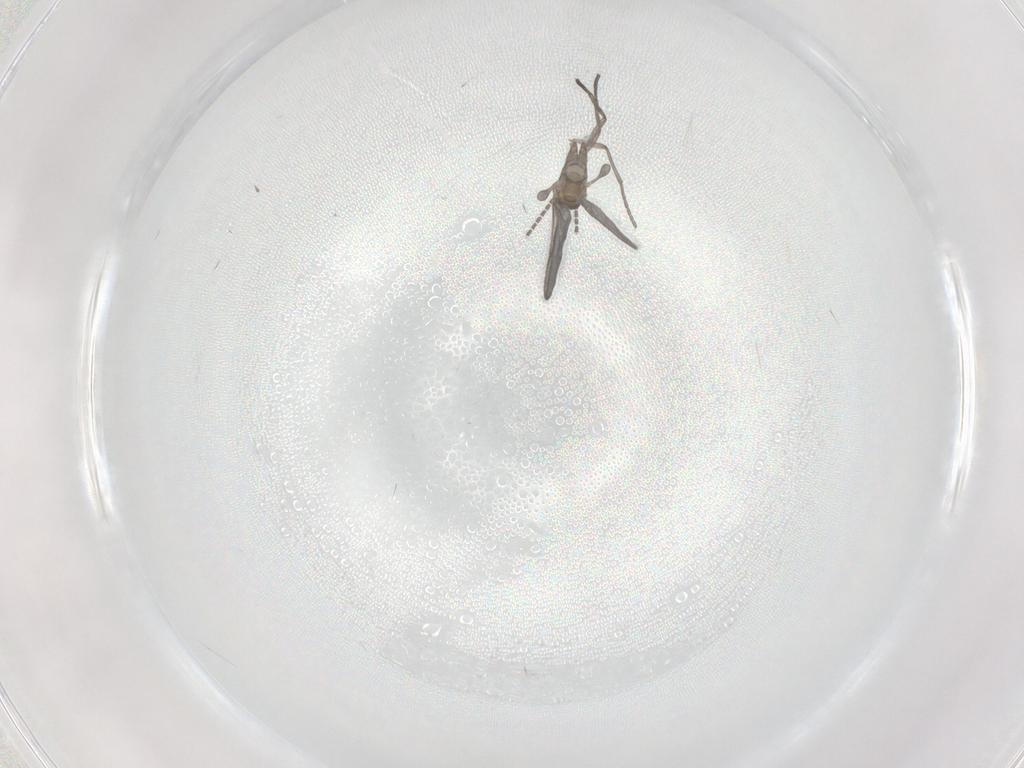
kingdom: Animalia
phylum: Arthropoda
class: Insecta
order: Diptera
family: Sciaridae
